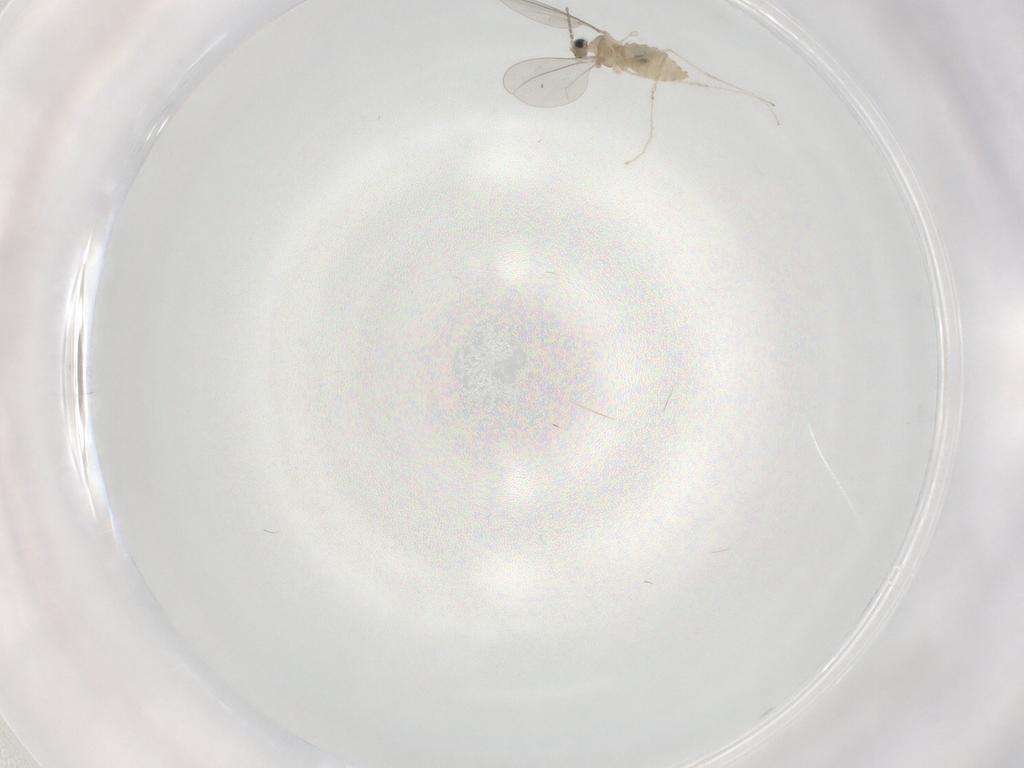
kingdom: Animalia
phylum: Arthropoda
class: Insecta
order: Diptera
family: Cecidomyiidae
